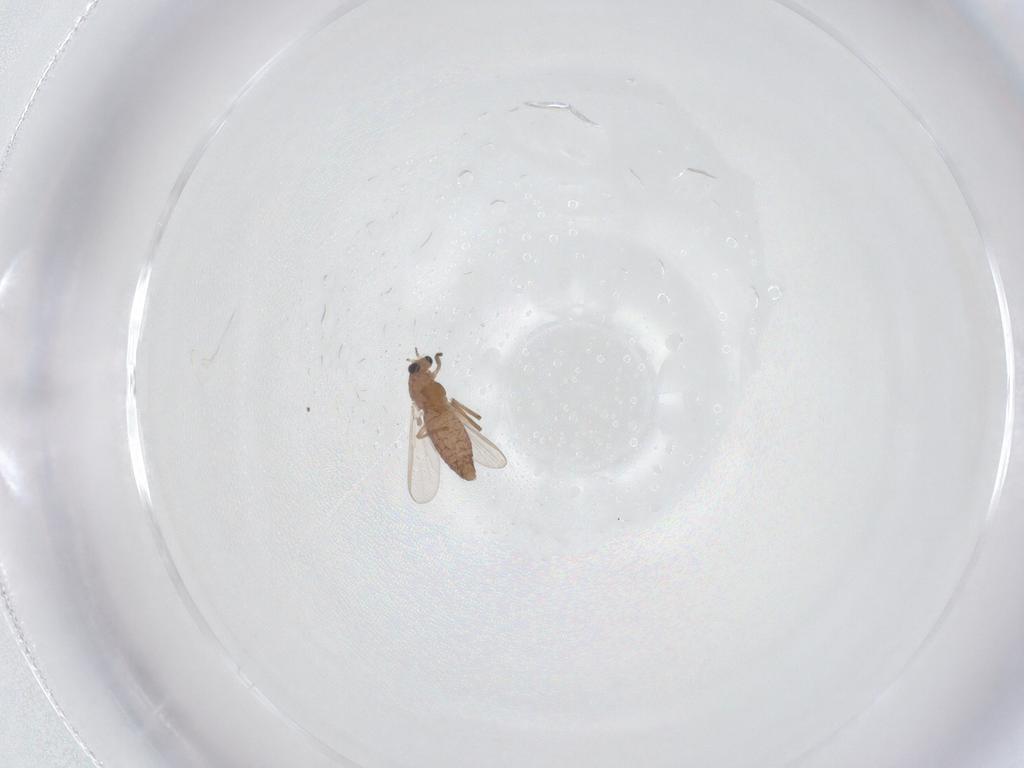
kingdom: Animalia
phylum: Arthropoda
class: Insecta
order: Diptera
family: Chironomidae
